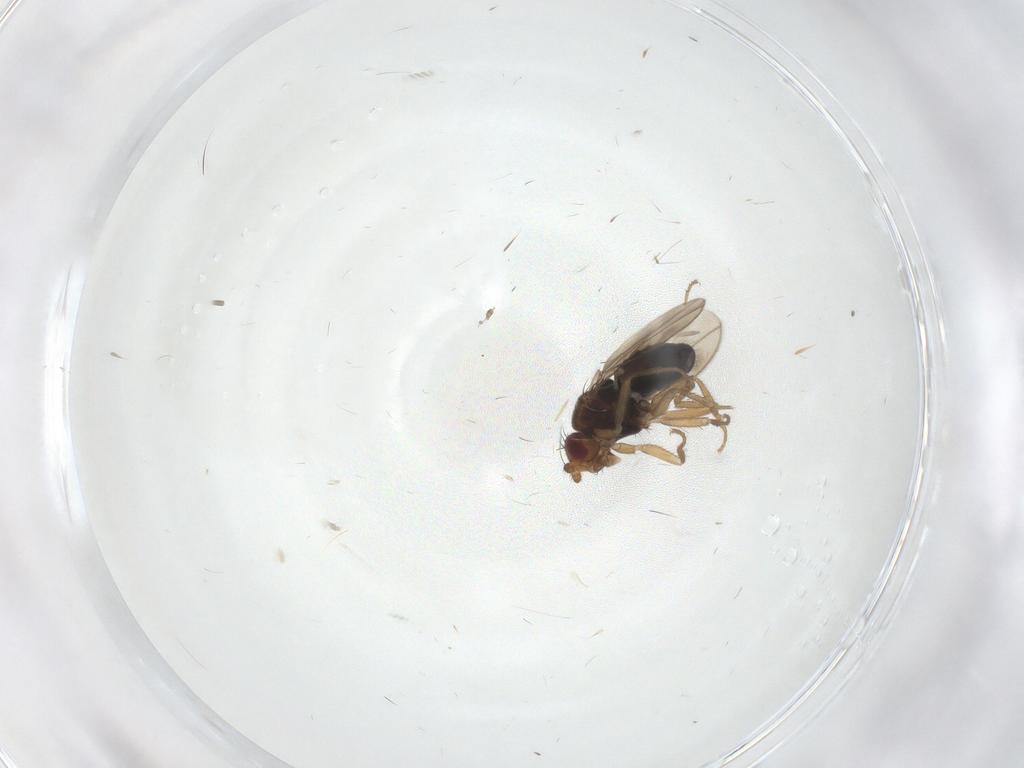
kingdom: Animalia
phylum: Arthropoda
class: Insecta
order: Diptera
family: Sphaeroceridae
